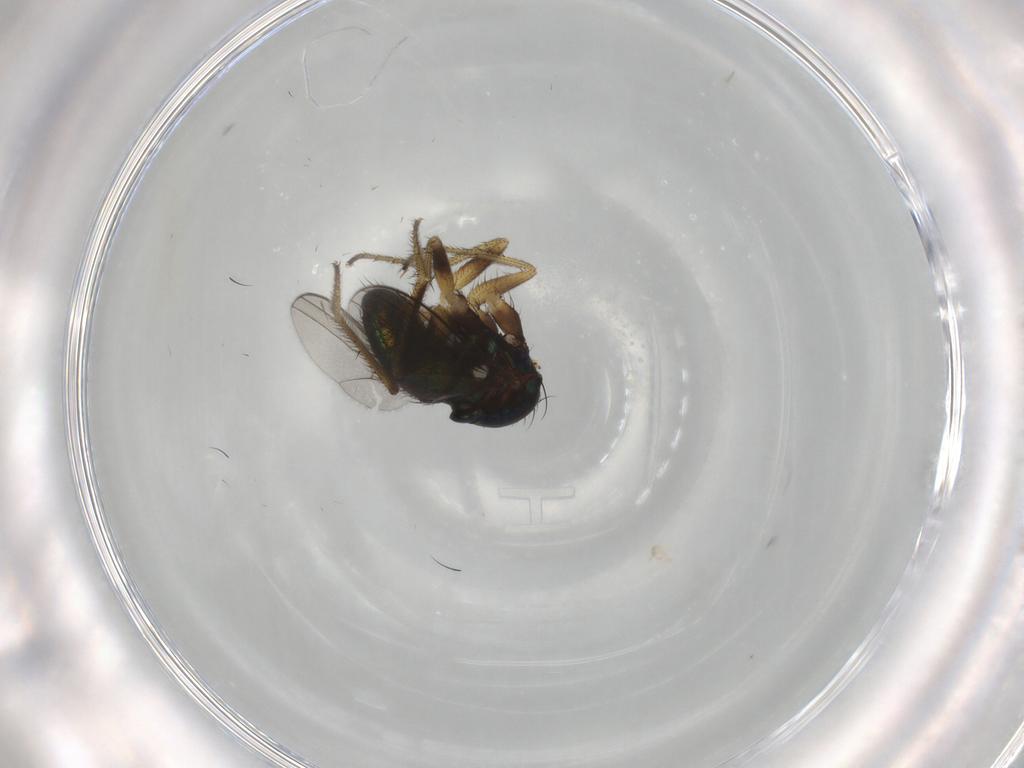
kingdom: Animalia
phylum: Arthropoda
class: Insecta
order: Diptera
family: Dolichopodidae
